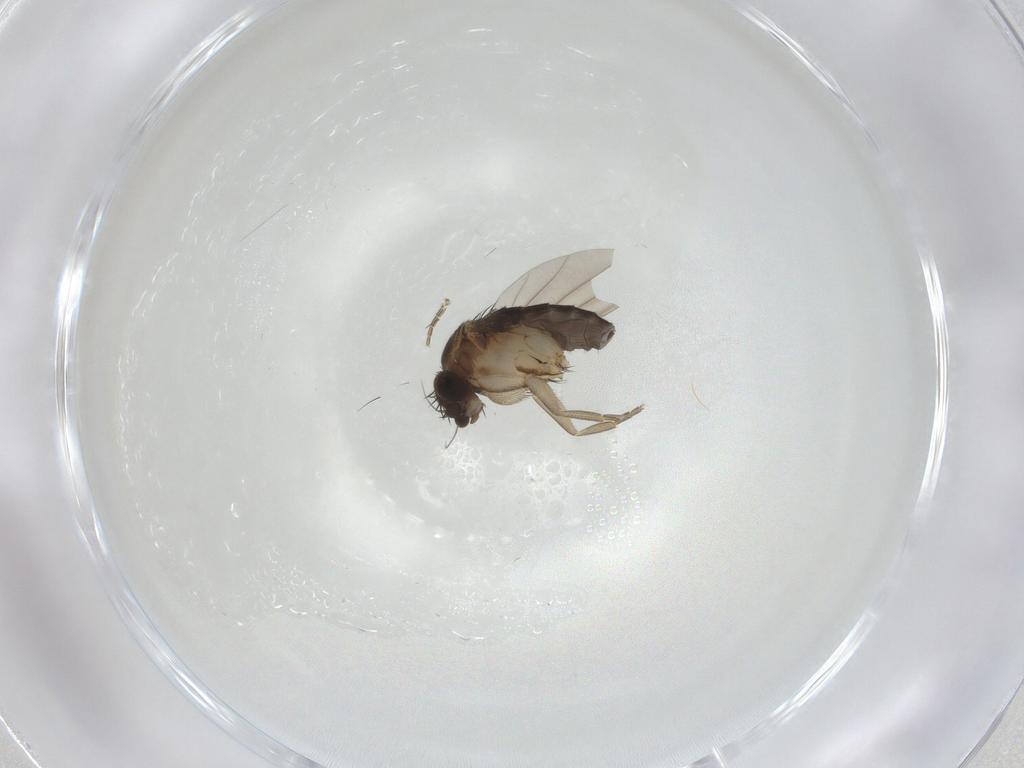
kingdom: Animalia
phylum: Arthropoda
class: Insecta
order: Diptera
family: Phoridae
